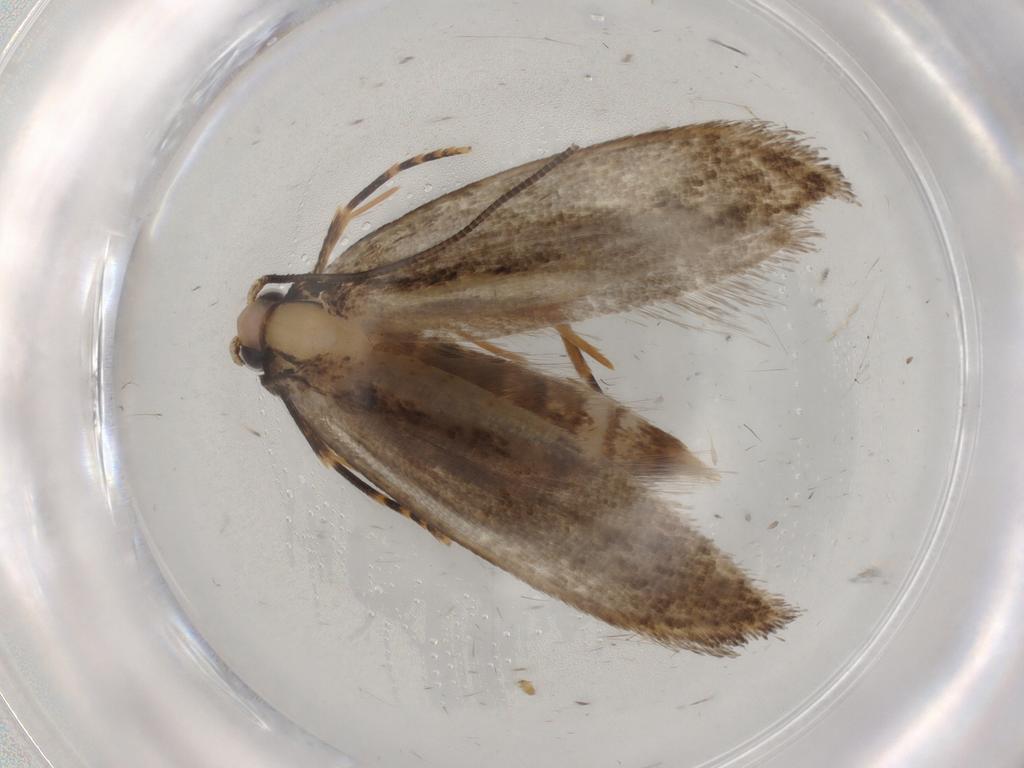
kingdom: Animalia
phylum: Arthropoda
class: Insecta
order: Lepidoptera
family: Tineidae
